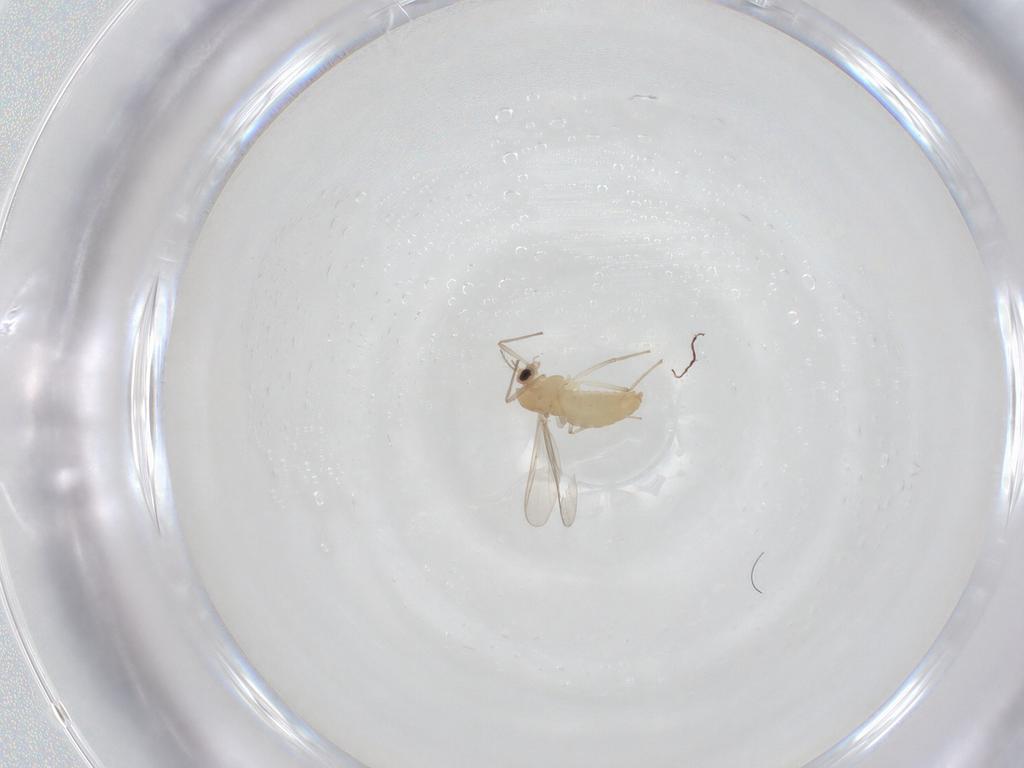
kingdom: Animalia
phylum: Arthropoda
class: Insecta
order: Diptera
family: Chironomidae
